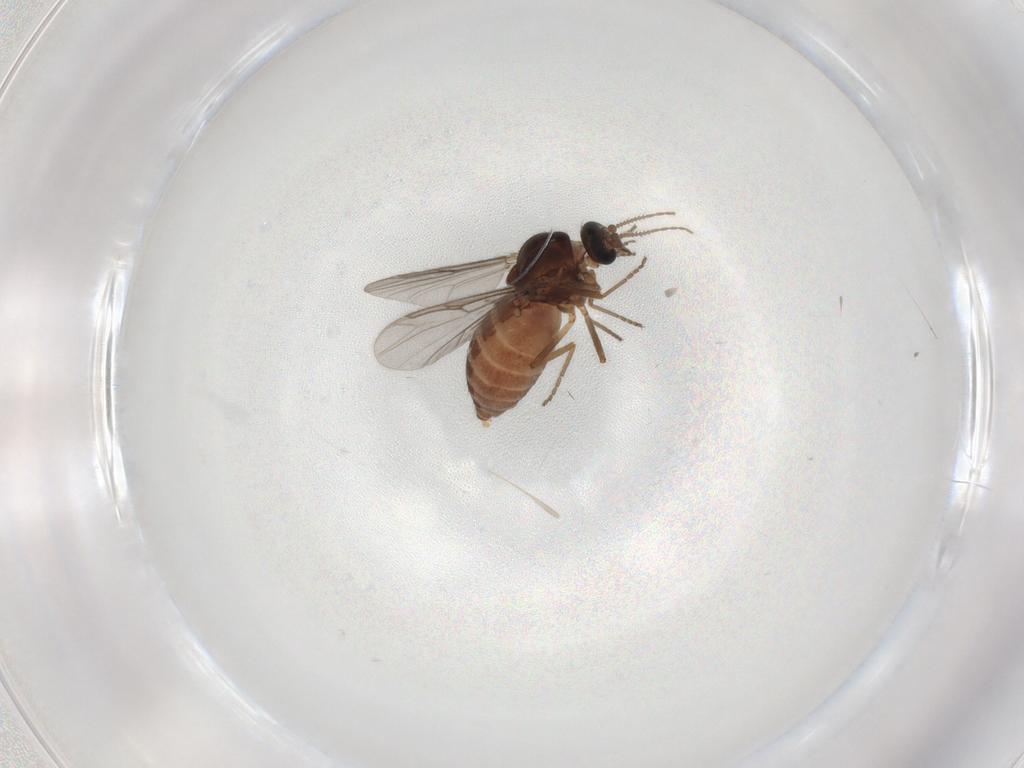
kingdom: Animalia
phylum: Arthropoda
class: Insecta
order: Diptera
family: Ceratopogonidae
